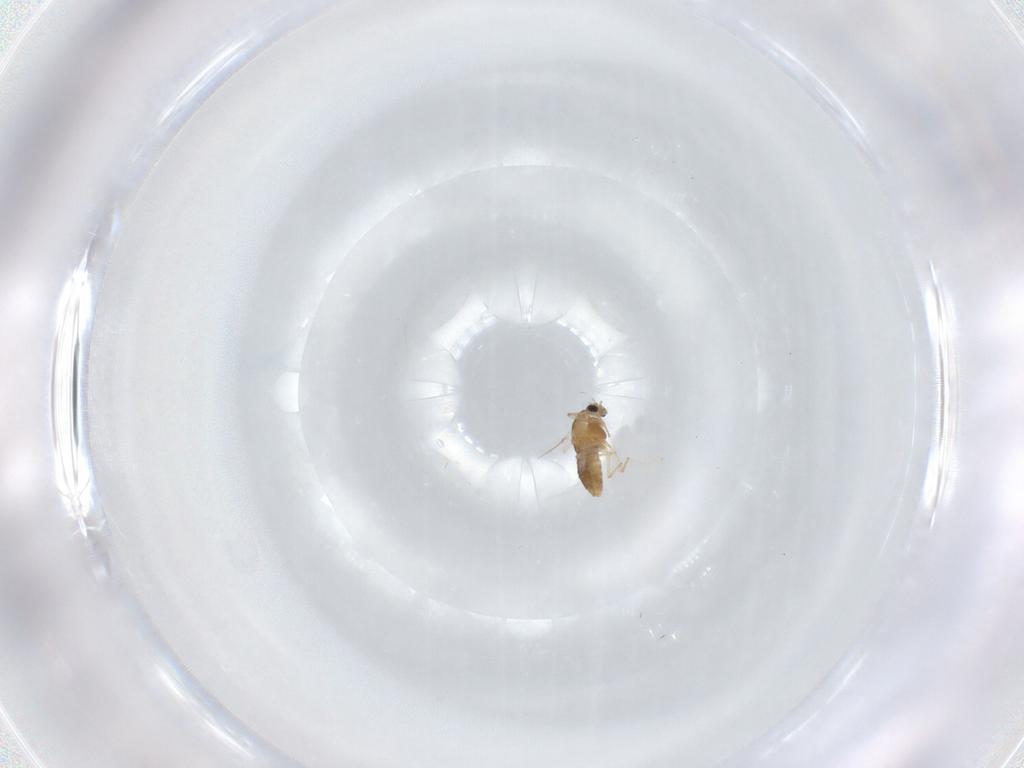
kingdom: Animalia
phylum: Arthropoda
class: Insecta
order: Diptera
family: Chironomidae
